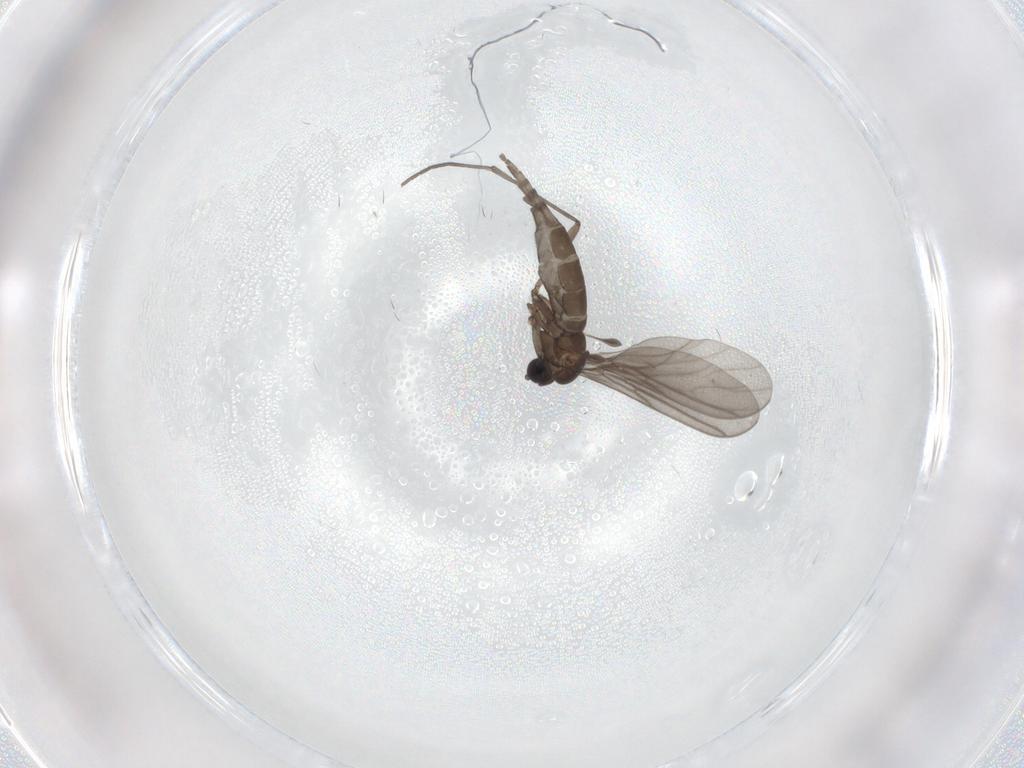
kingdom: Animalia
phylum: Arthropoda
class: Insecta
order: Diptera
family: Sciaridae
